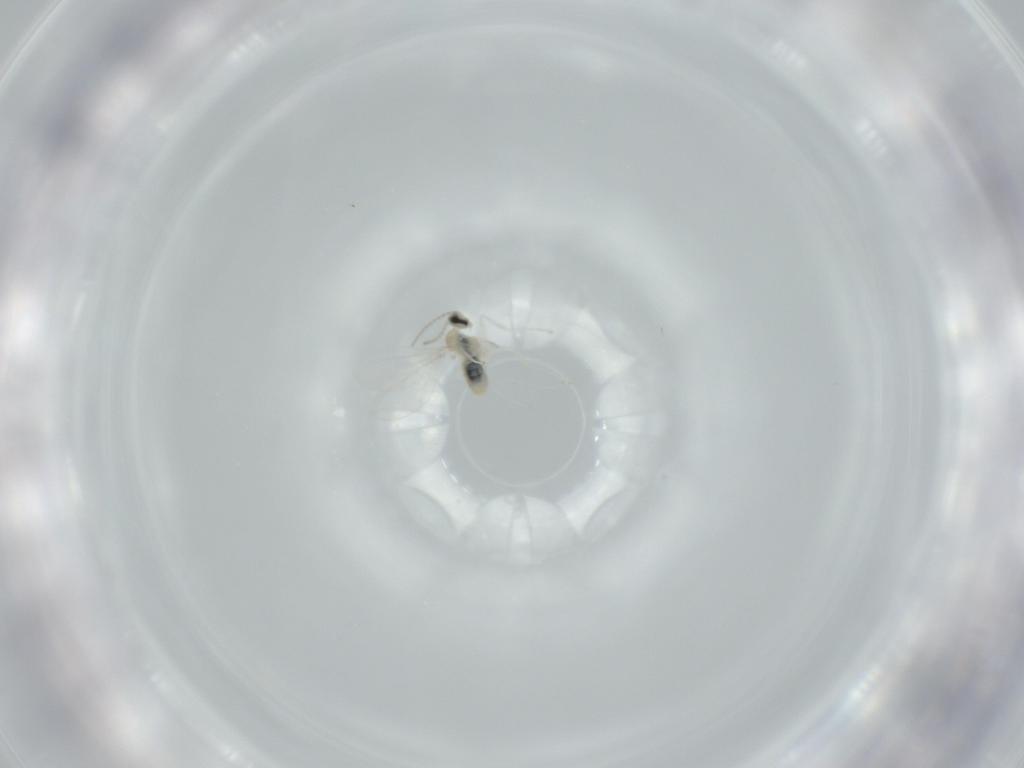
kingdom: Animalia
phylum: Arthropoda
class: Insecta
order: Diptera
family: Cecidomyiidae
